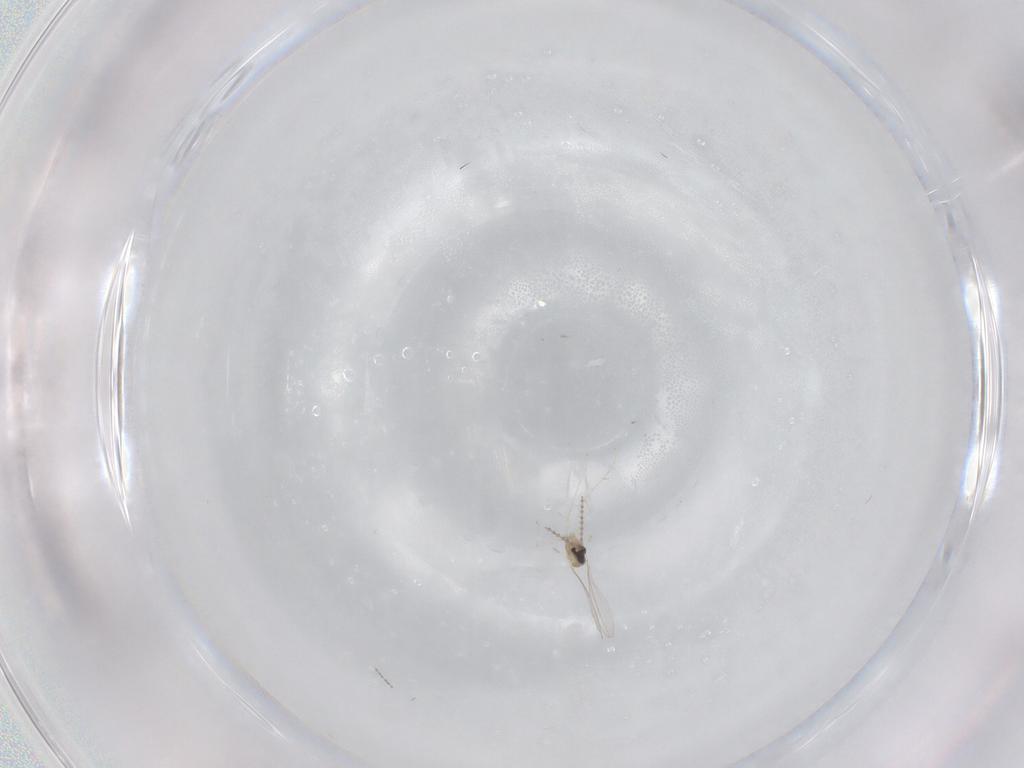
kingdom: Animalia
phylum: Arthropoda
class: Insecta
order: Diptera
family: Cecidomyiidae
